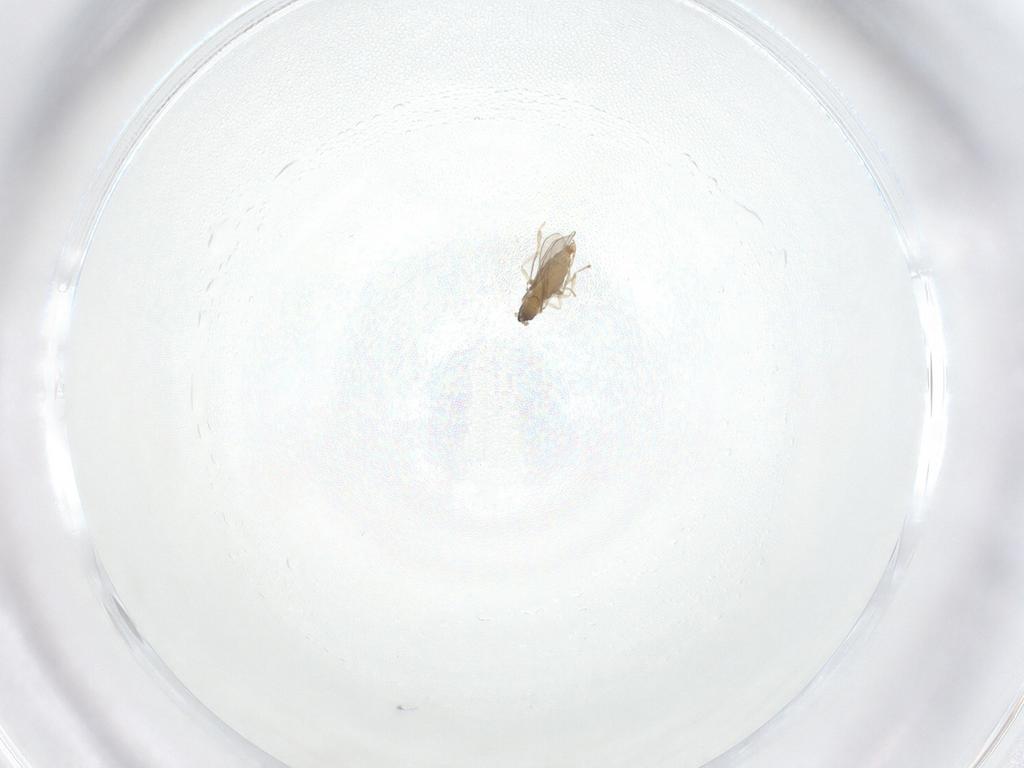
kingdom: Animalia
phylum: Arthropoda
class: Insecta
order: Diptera
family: Cecidomyiidae
